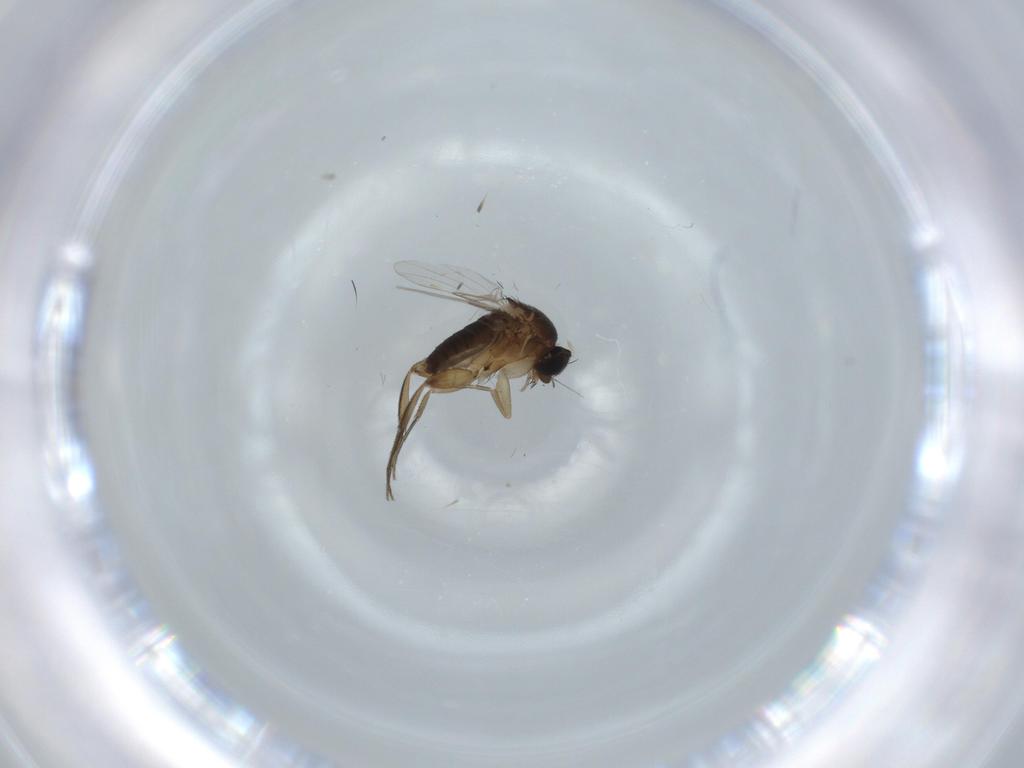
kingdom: Animalia
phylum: Arthropoda
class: Insecta
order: Diptera
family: Phoridae
